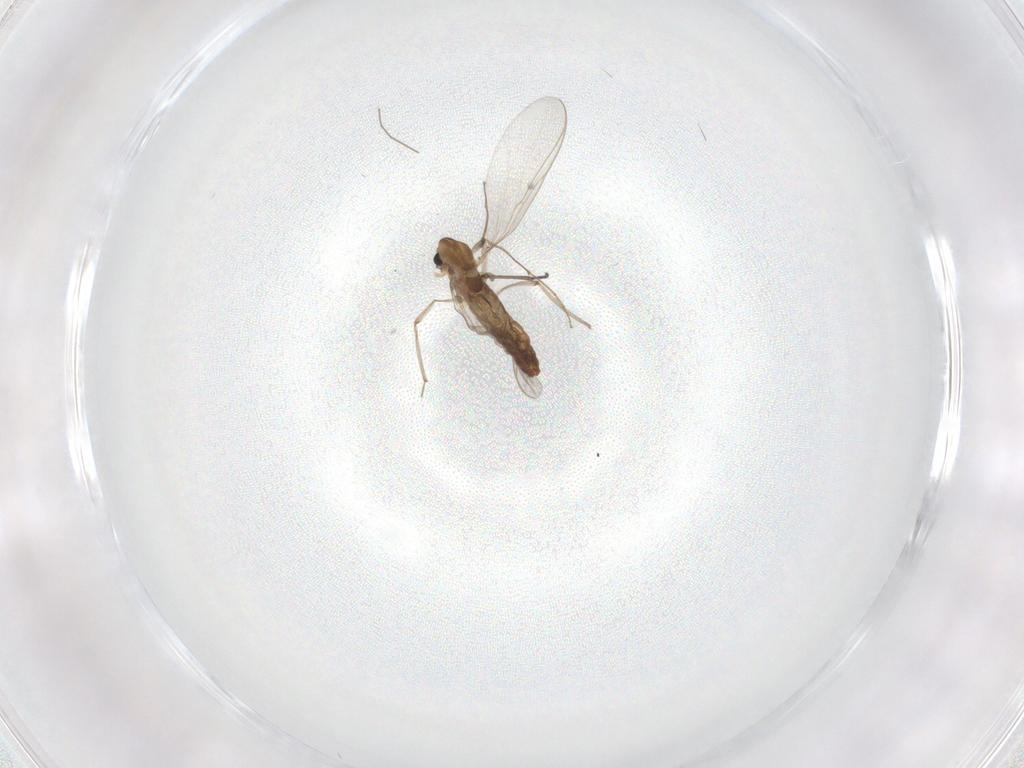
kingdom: Animalia
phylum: Arthropoda
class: Insecta
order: Diptera
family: Chironomidae
